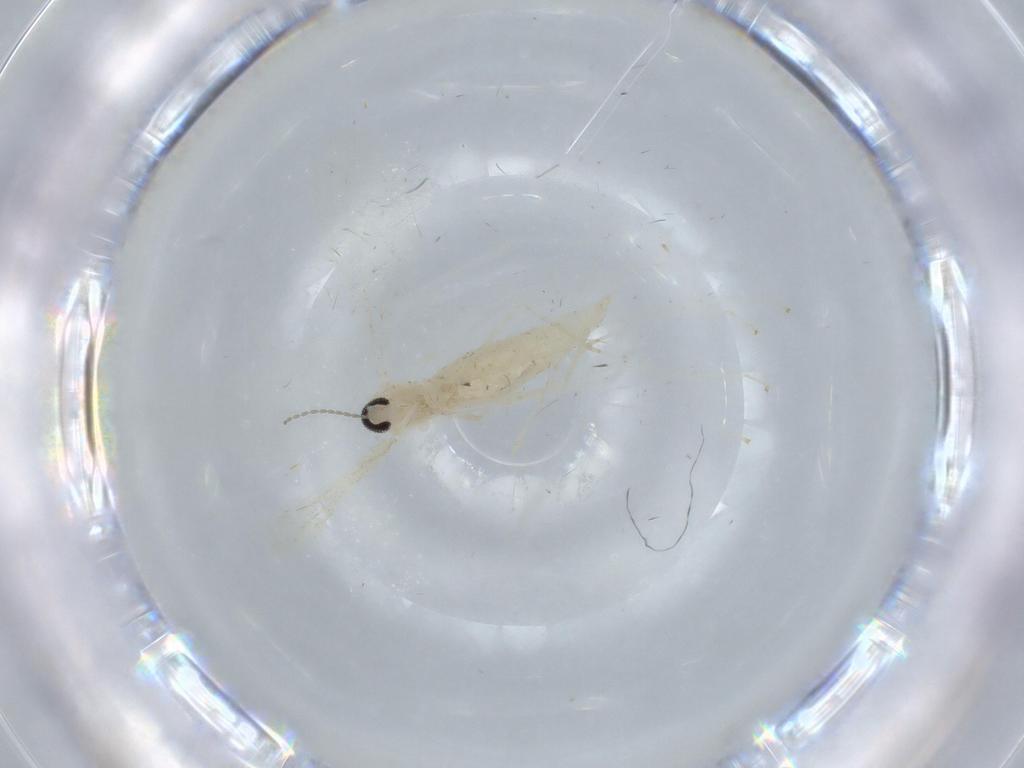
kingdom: Animalia
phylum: Arthropoda
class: Insecta
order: Diptera
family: Cecidomyiidae
